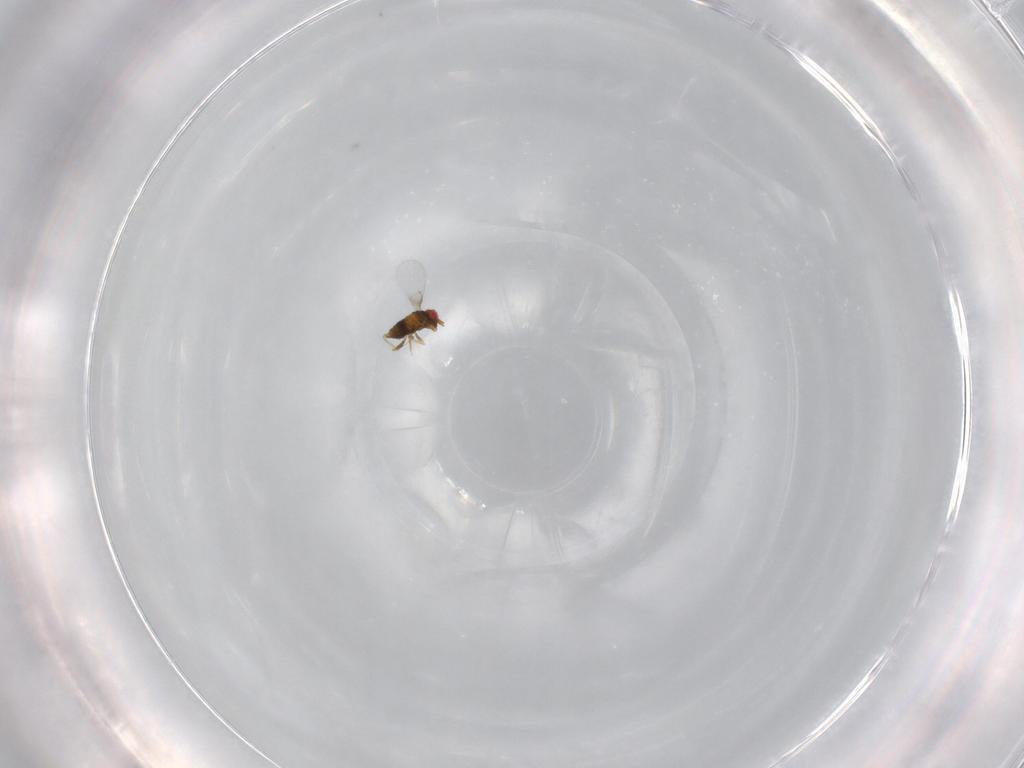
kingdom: Animalia
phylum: Arthropoda
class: Insecta
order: Hymenoptera
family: Trichogrammatidae
